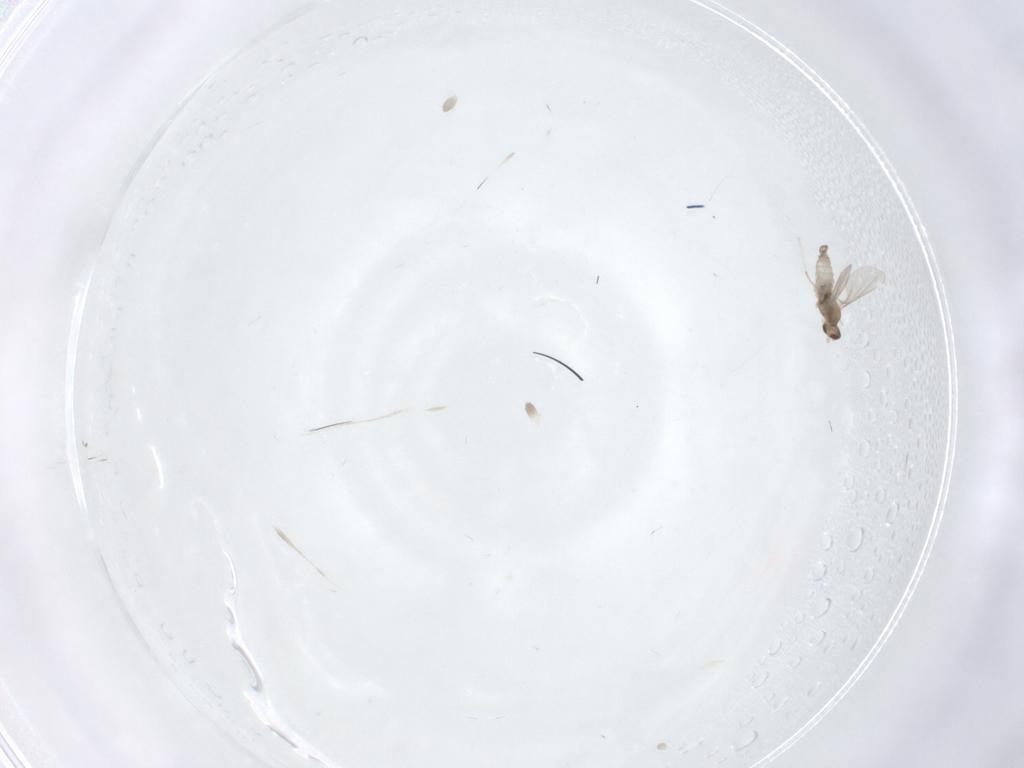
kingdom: Animalia
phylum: Arthropoda
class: Insecta
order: Diptera
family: Sciaridae
